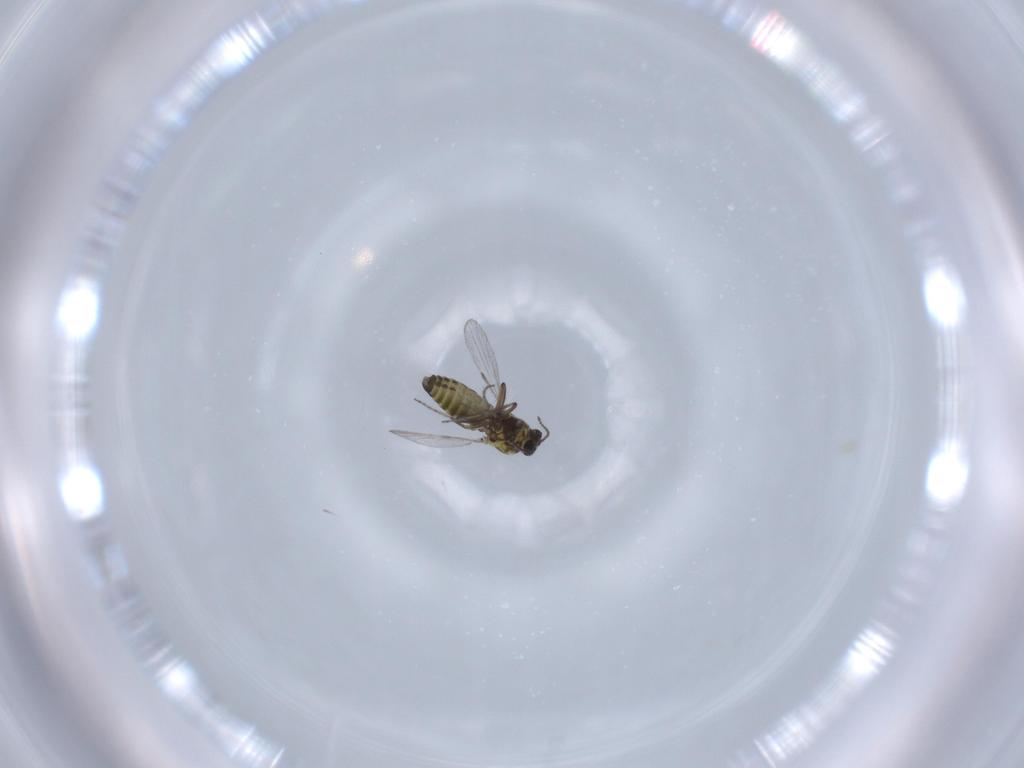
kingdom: Animalia
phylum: Arthropoda
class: Insecta
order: Diptera
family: Ceratopogonidae
